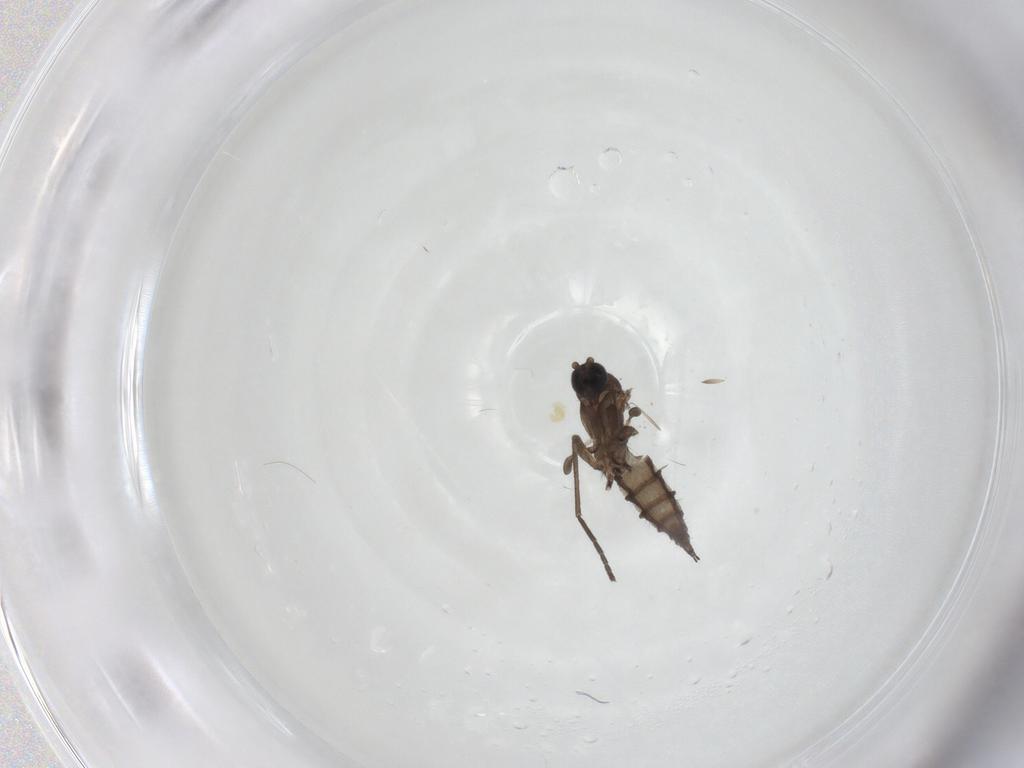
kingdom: Animalia
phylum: Arthropoda
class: Insecta
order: Diptera
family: Sciaridae
